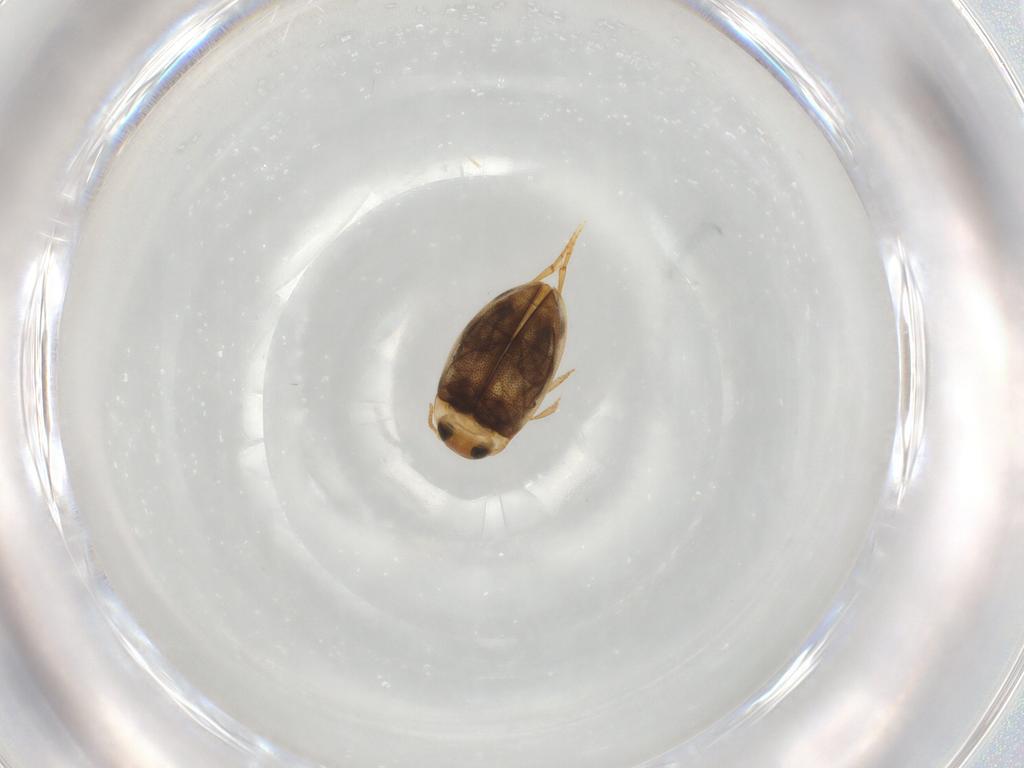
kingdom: Animalia
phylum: Arthropoda
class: Insecta
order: Coleoptera
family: Dytiscidae
